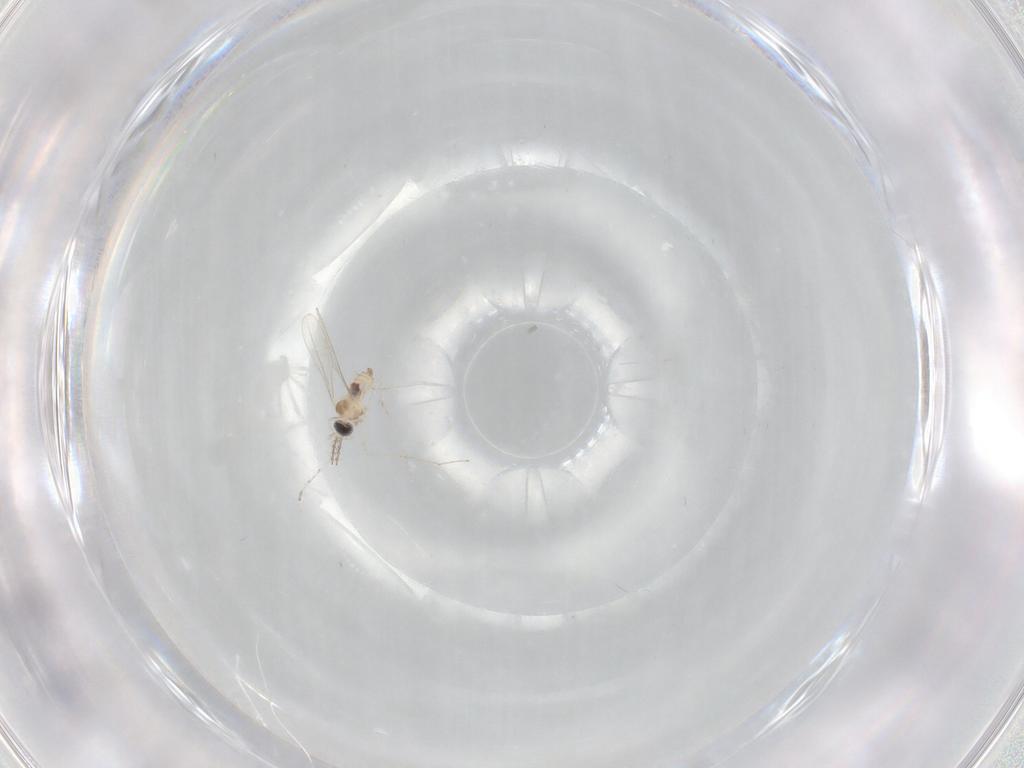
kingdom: Animalia
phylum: Arthropoda
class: Insecta
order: Diptera
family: Cecidomyiidae
